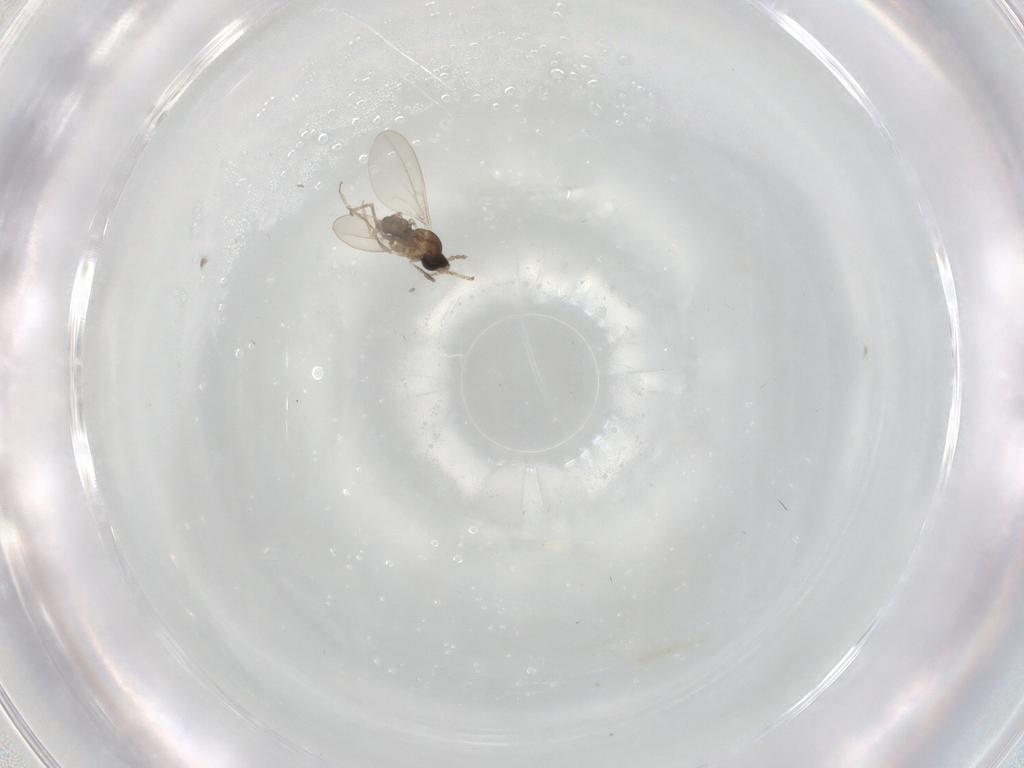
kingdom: Animalia
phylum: Arthropoda
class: Insecta
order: Diptera
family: Cecidomyiidae
